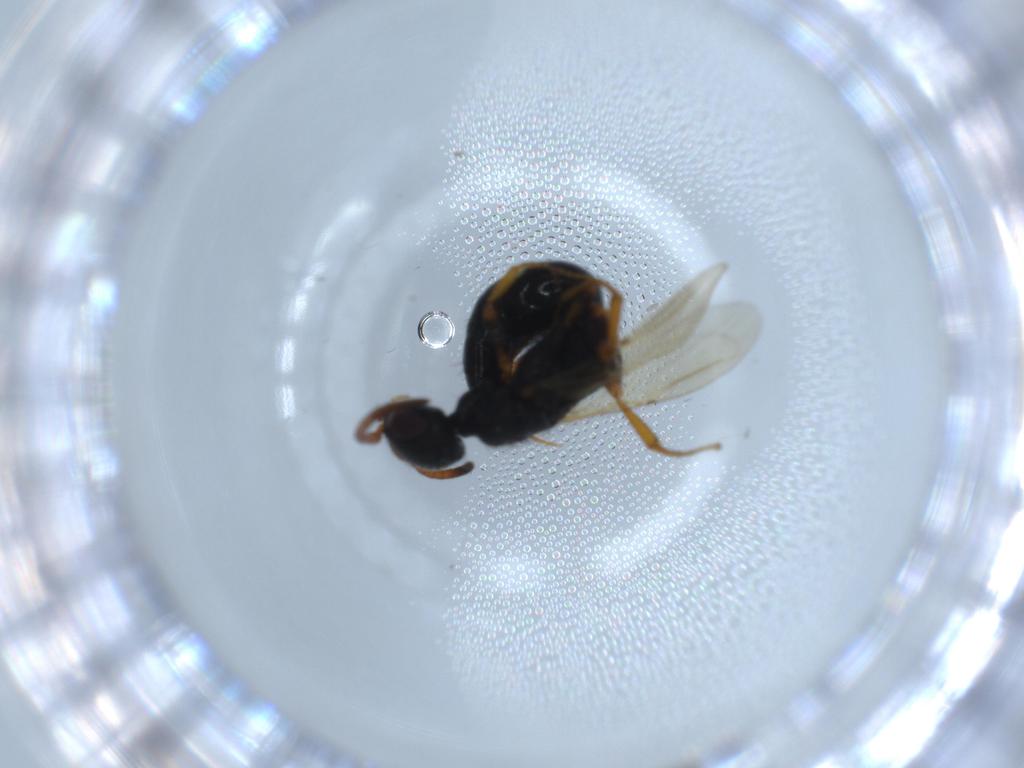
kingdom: Animalia
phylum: Arthropoda
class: Insecta
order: Hymenoptera
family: Bethylidae
